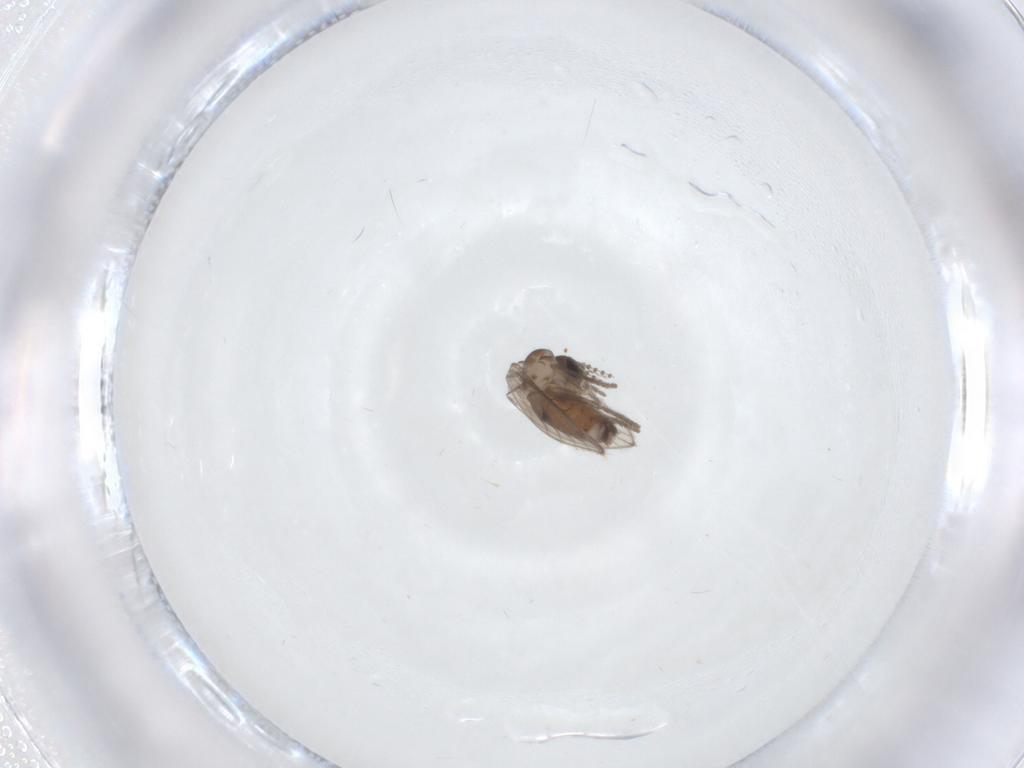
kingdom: Animalia
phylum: Arthropoda
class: Insecta
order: Diptera
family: Psychodidae
